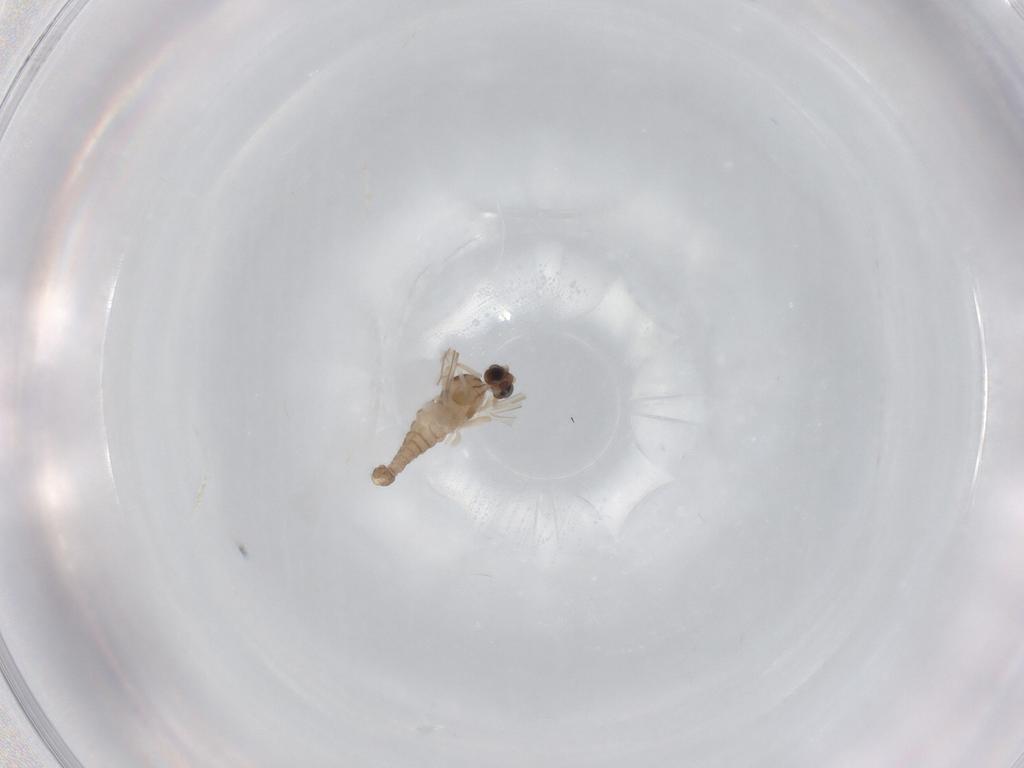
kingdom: Animalia
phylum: Arthropoda
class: Insecta
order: Diptera
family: Cecidomyiidae
